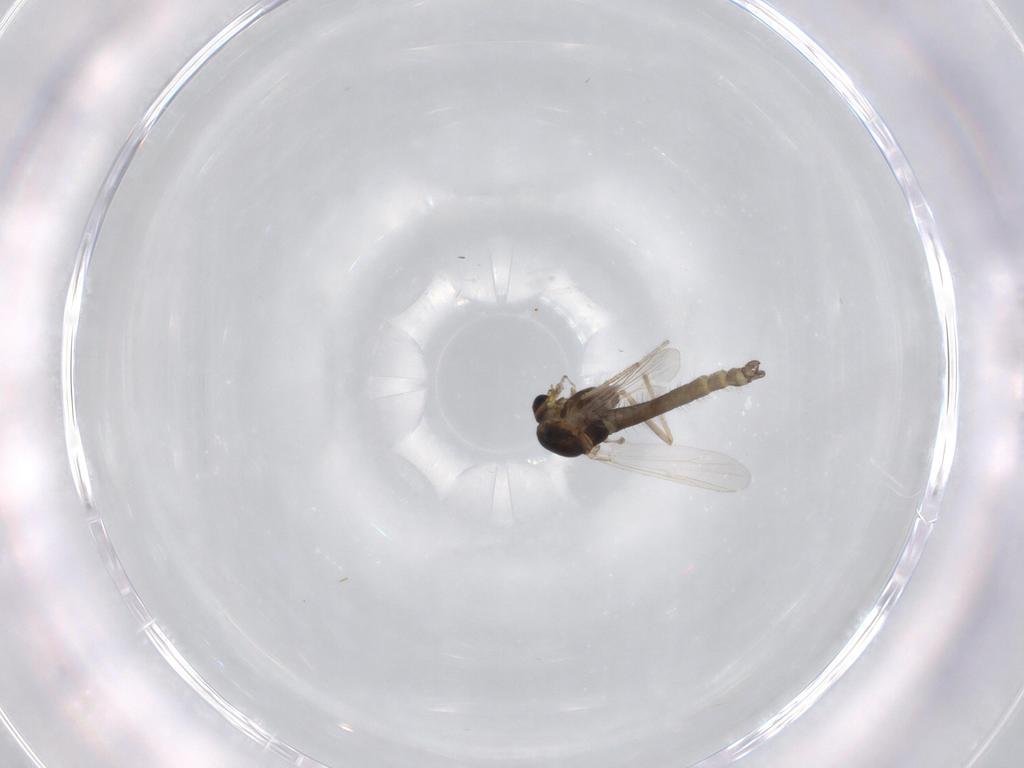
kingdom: Animalia
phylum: Arthropoda
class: Insecta
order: Diptera
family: Chironomidae
